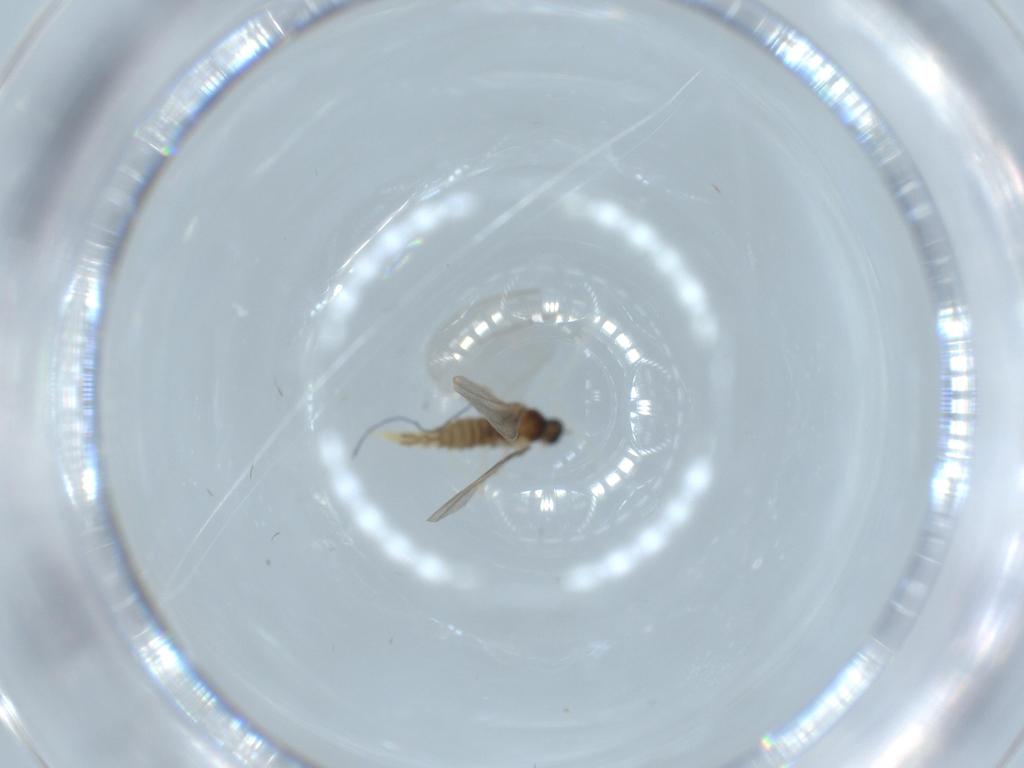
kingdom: Animalia
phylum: Arthropoda
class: Insecta
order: Diptera
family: Cecidomyiidae
